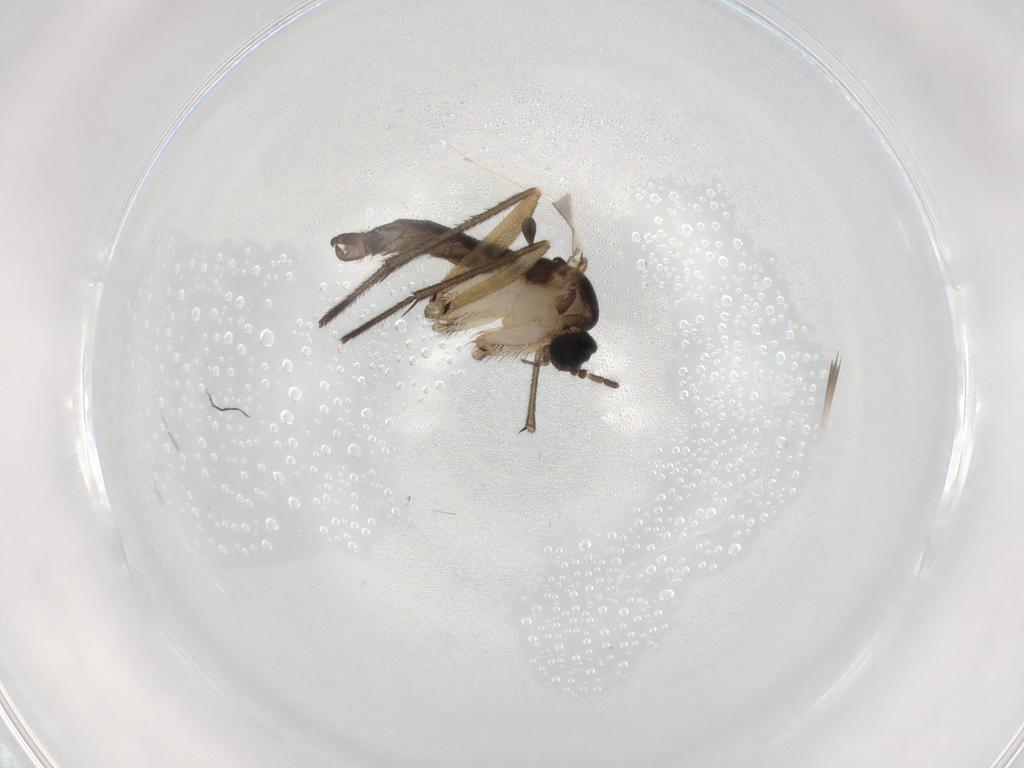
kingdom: Animalia
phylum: Arthropoda
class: Insecta
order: Diptera
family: Sciaridae
